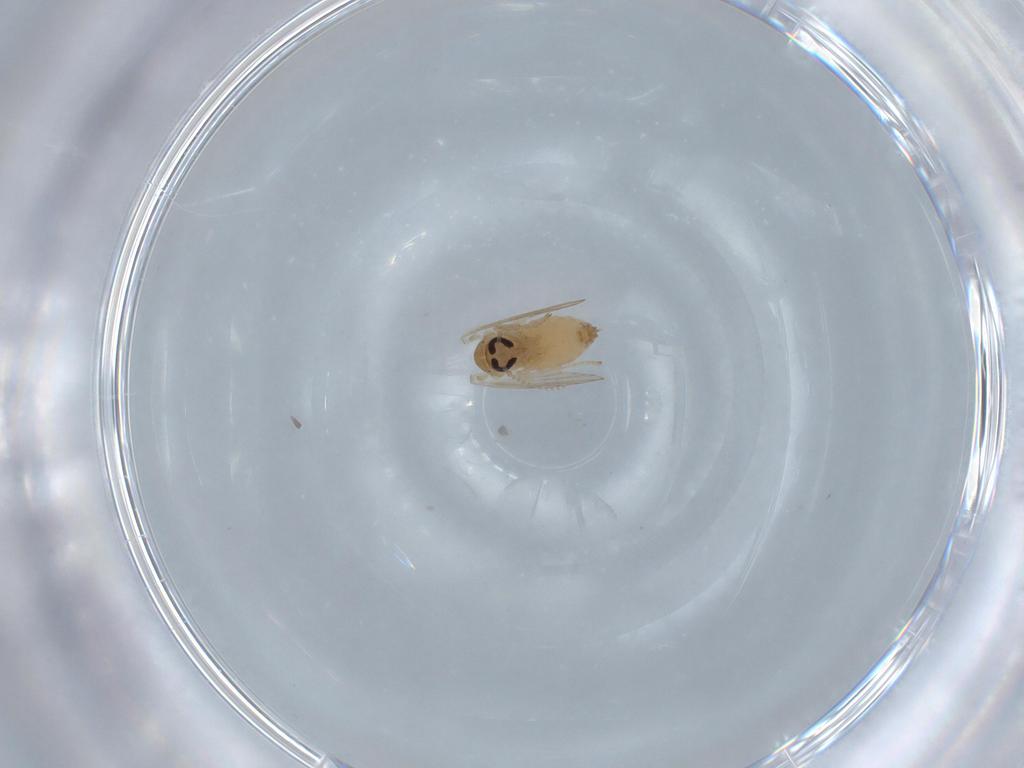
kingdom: Animalia
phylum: Arthropoda
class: Insecta
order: Diptera
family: Psychodidae
